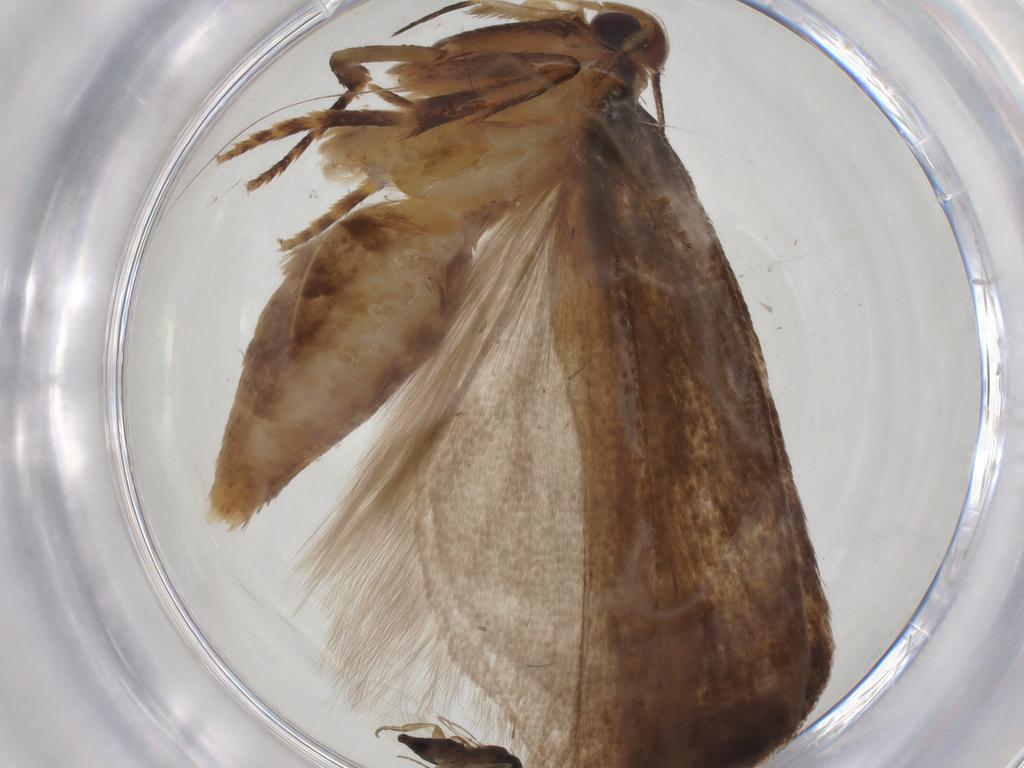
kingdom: Animalia
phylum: Arthropoda
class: Insecta
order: Lepidoptera
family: Gelechiidae
